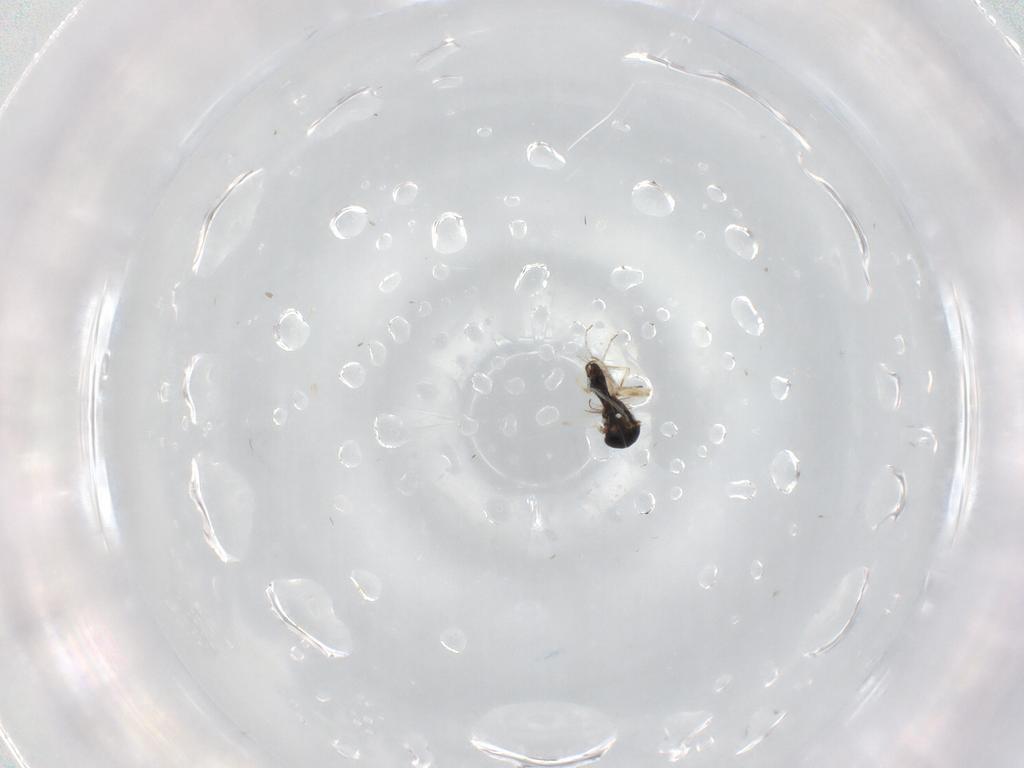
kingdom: Animalia
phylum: Arthropoda
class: Insecta
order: Diptera
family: Ceratopogonidae
